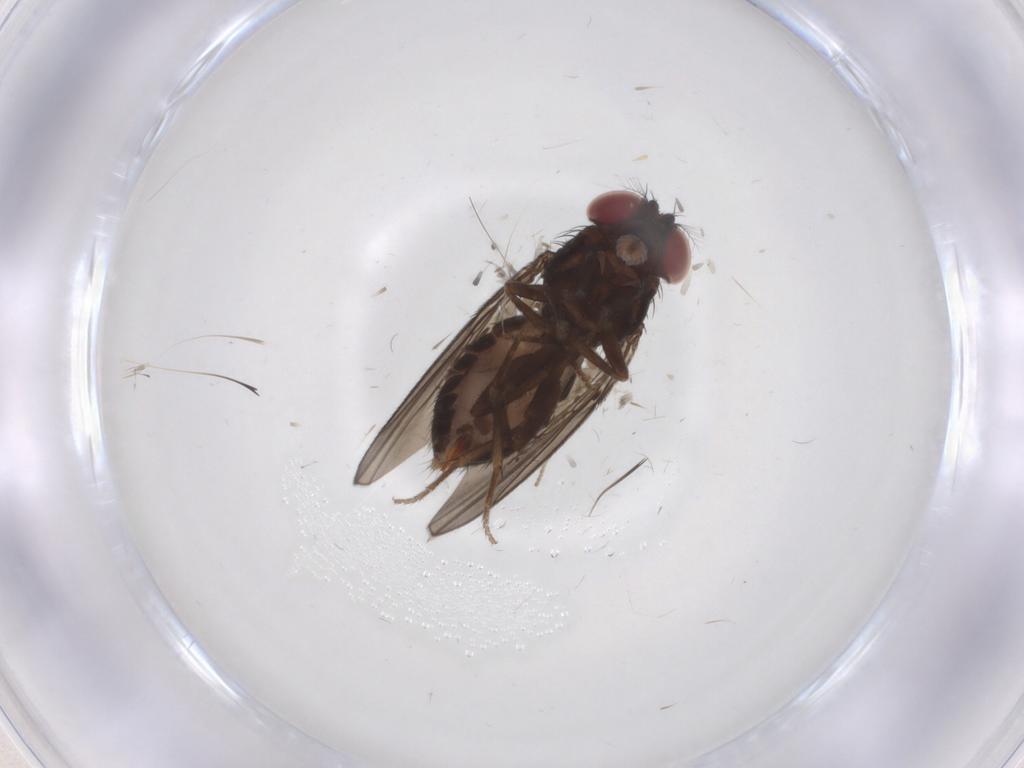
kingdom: Animalia
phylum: Arthropoda
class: Insecta
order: Diptera
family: Drosophilidae
